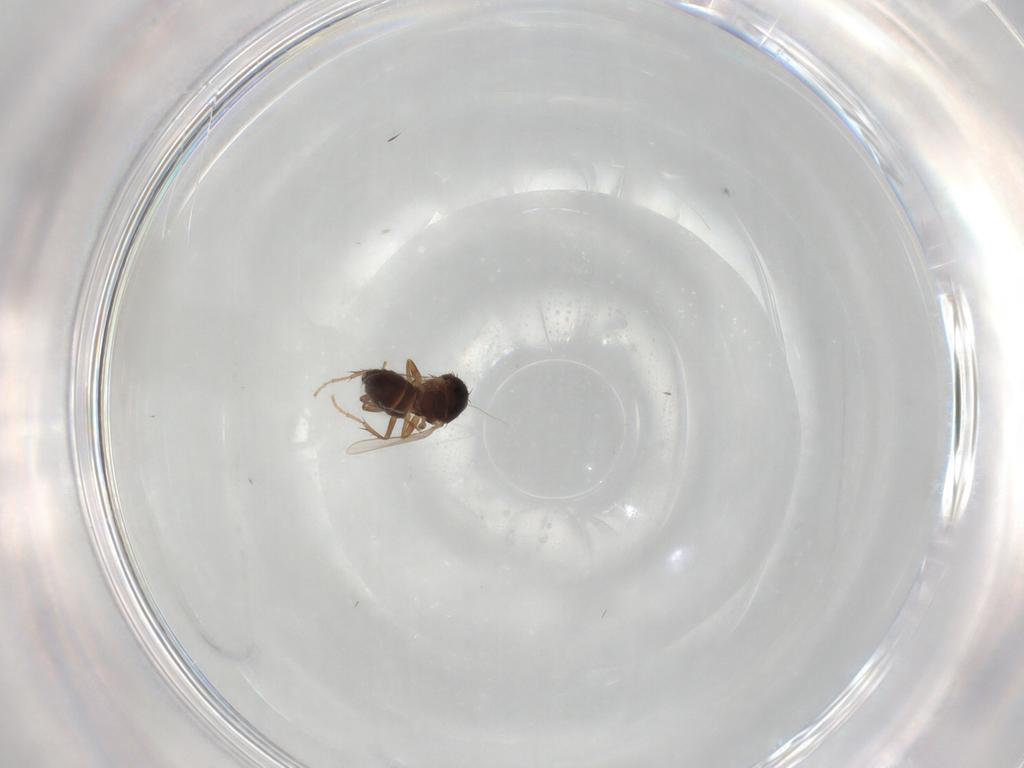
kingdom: Animalia
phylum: Arthropoda
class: Insecta
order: Diptera
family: Sphaeroceridae
